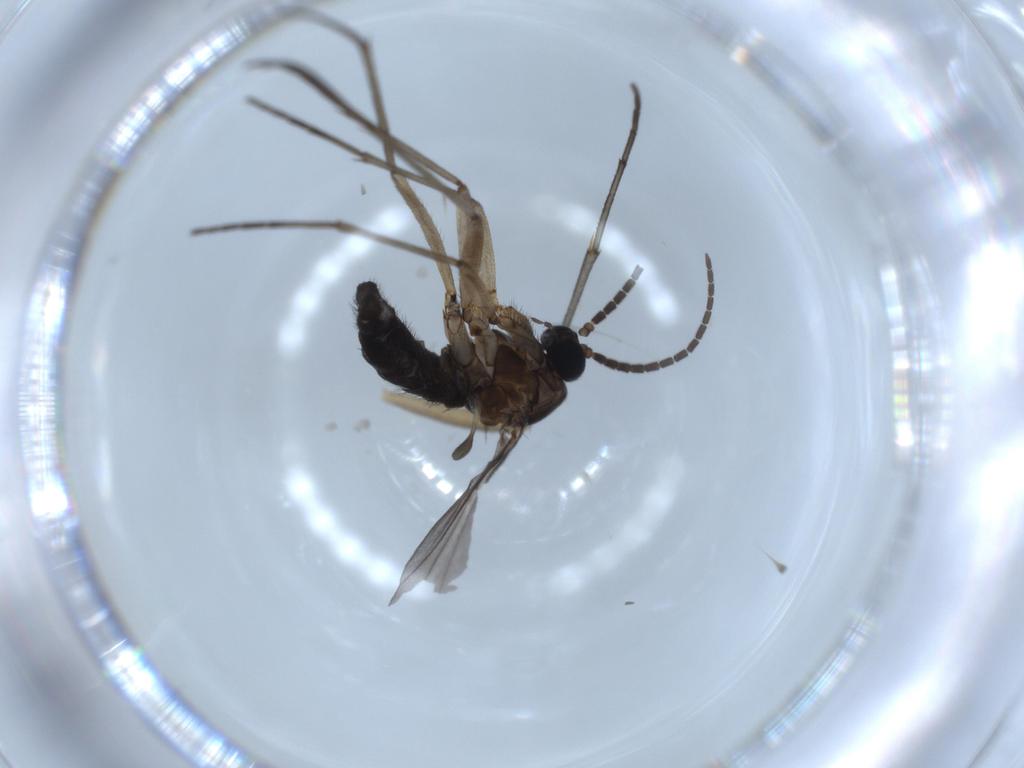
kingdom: Animalia
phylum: Arthropoda
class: Insecta
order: Diptera
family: Sciaridae
